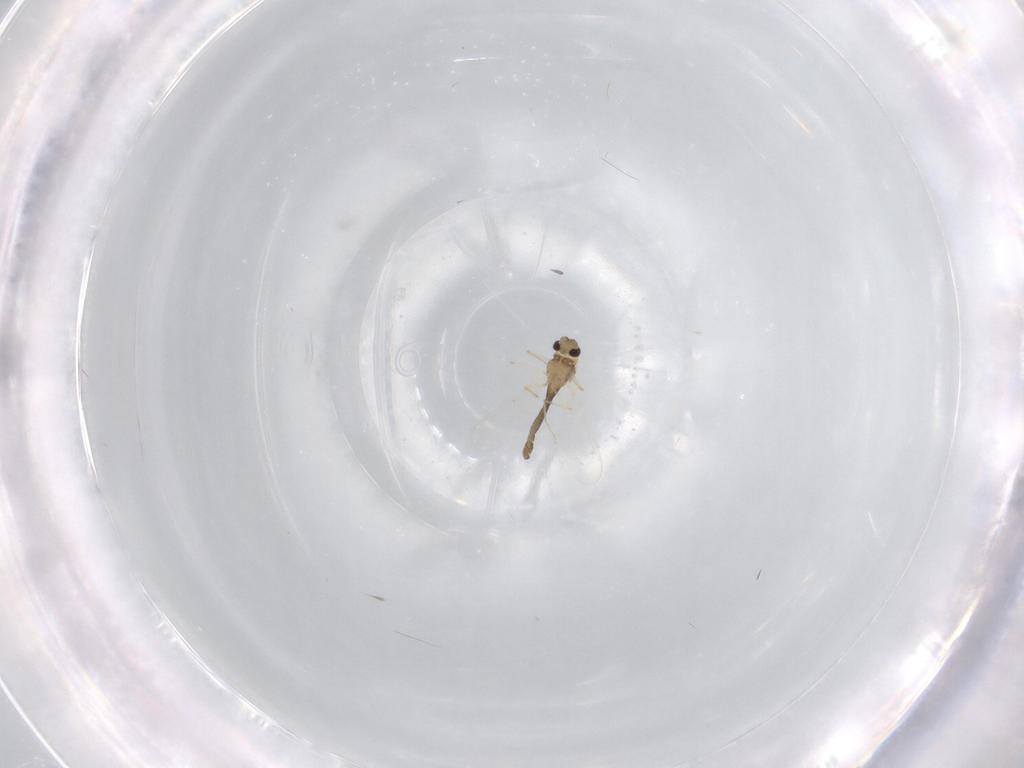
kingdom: Animalia
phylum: Arthropoda
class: Insecta
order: Diptera
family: Chironomidae
